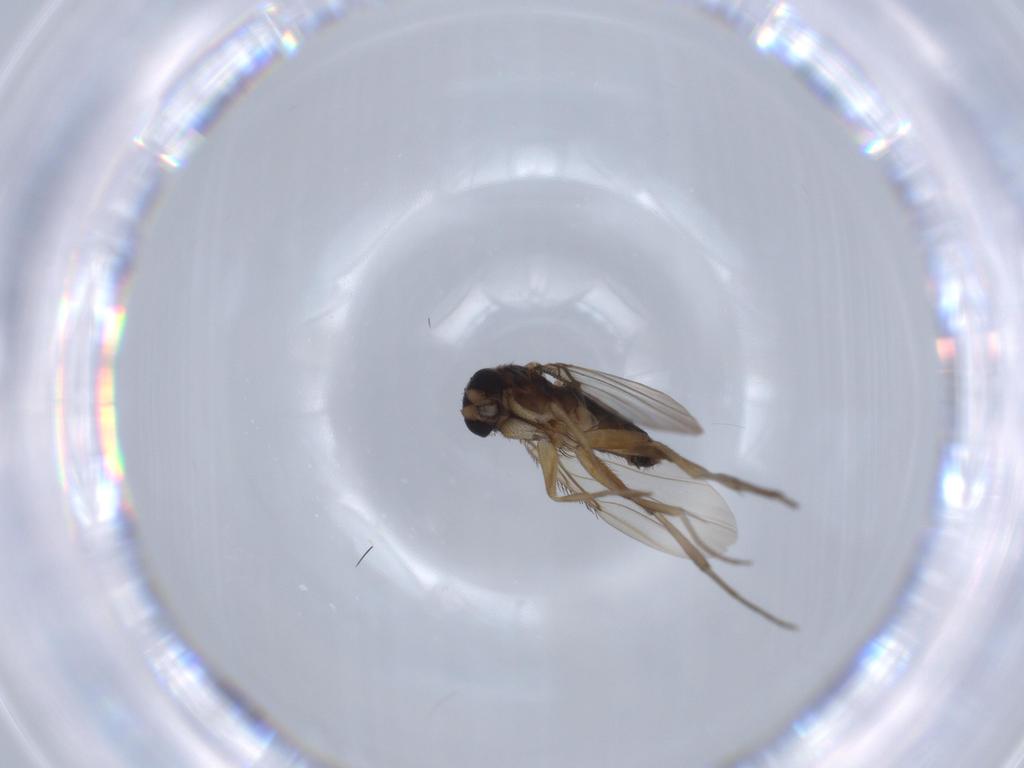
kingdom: Animalia
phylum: Arthropoda
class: Insecta
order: Diptera
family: Phoridae
